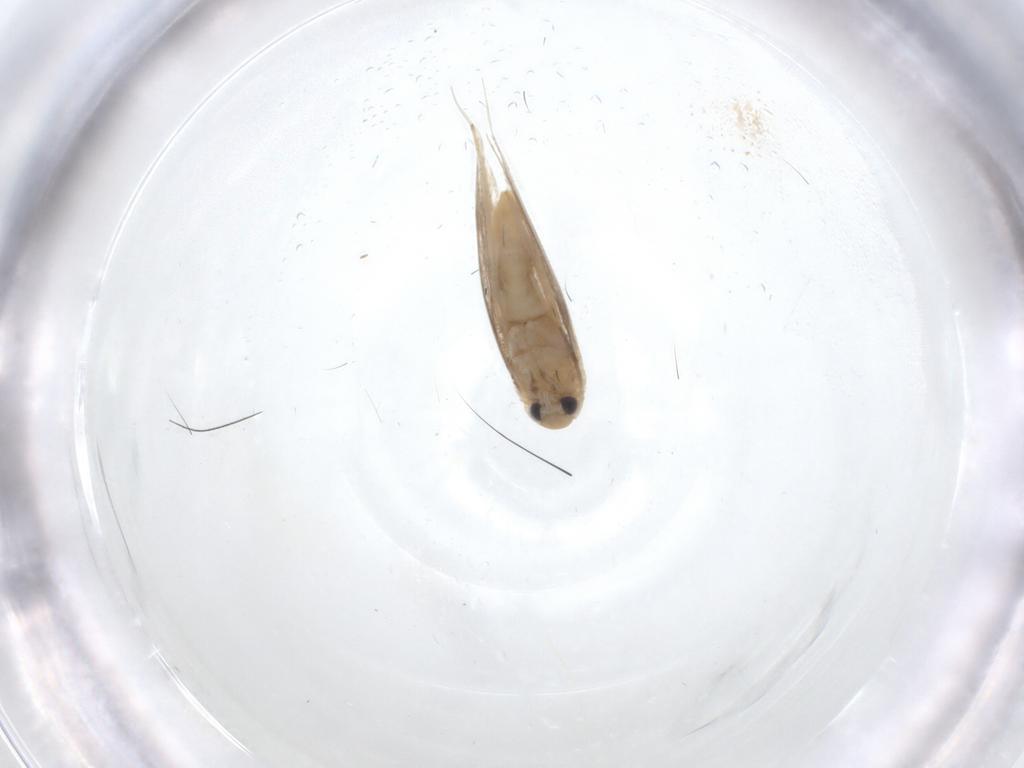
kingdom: Animalia
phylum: Arthropoda
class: Insecta
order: Lepidoptera
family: Gracillariidae
